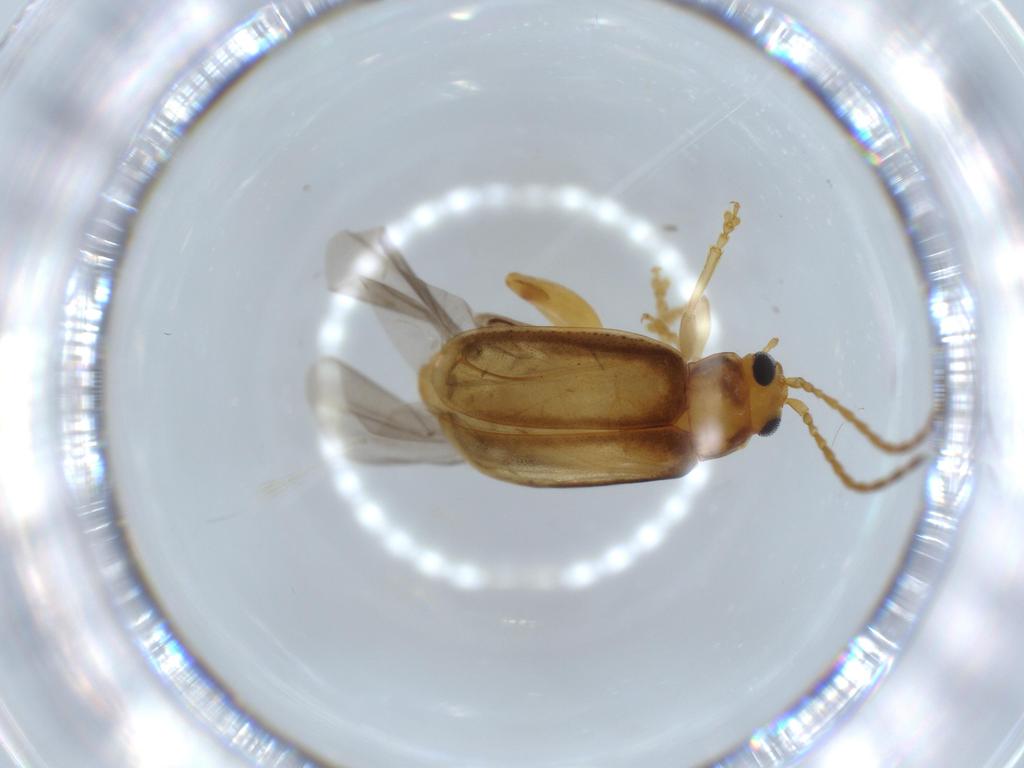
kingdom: Animalia
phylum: Arthropoda
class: Insecta
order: Coleoptera
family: Chrysomelidae
